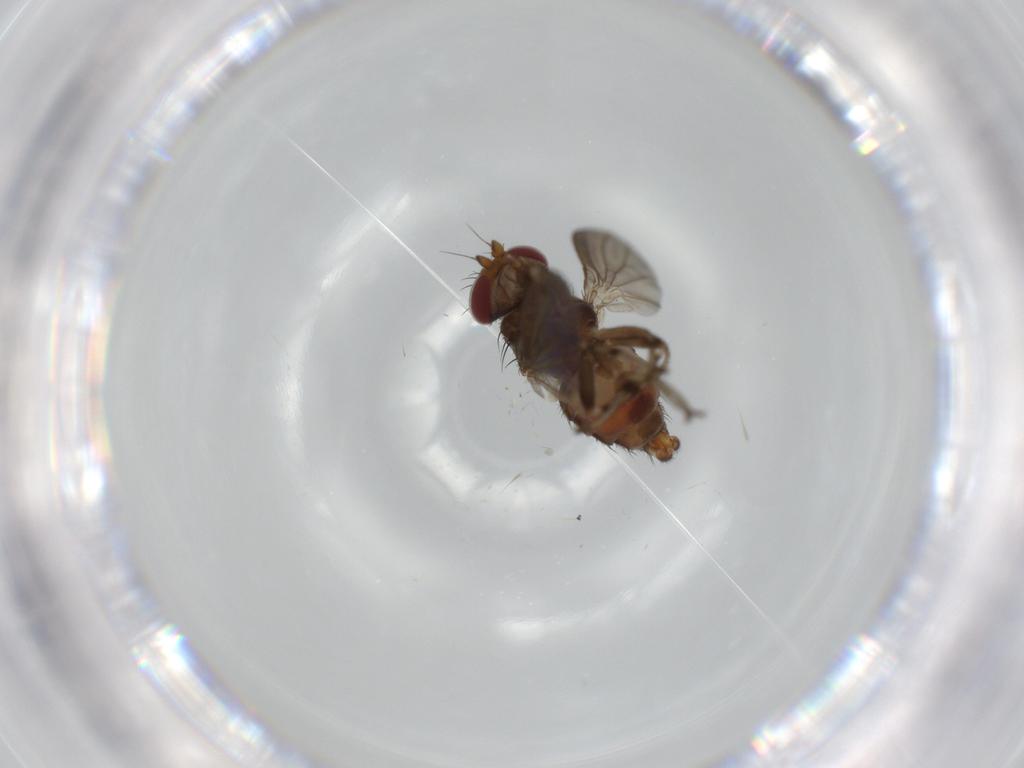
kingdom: Animalia
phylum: Arthropoda
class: Insecta
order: Diptera
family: Heleomyzidae
